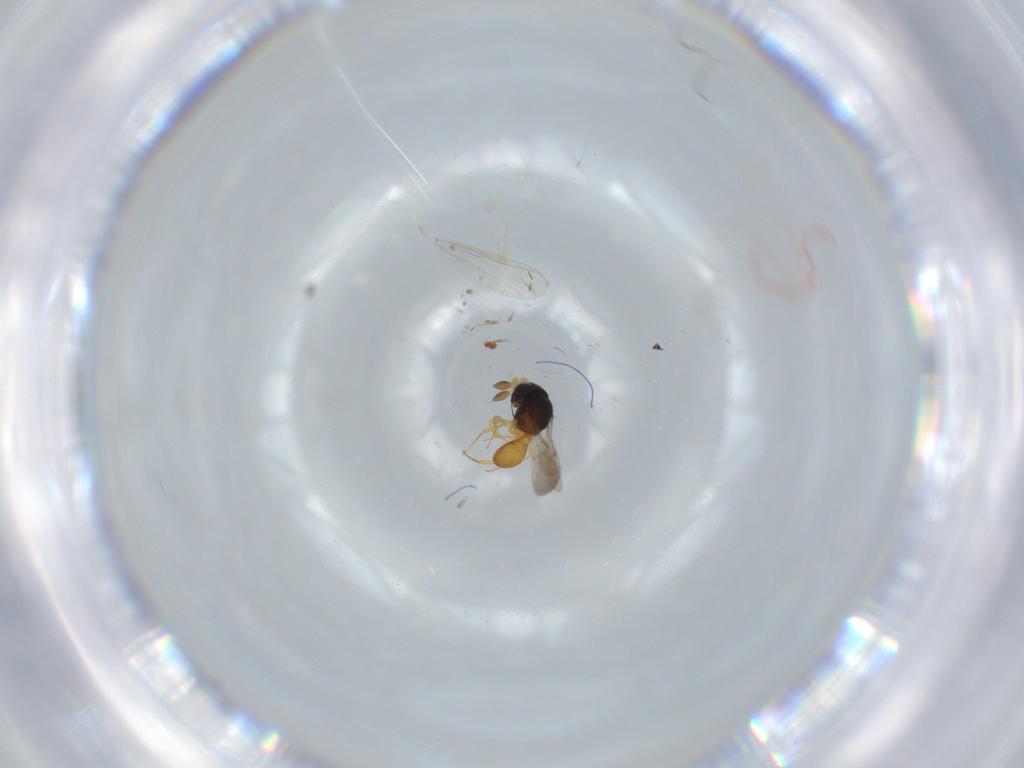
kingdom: Animalia
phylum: Arthropoda
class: Insecta
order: Hymenoptera
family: Scelionidae
